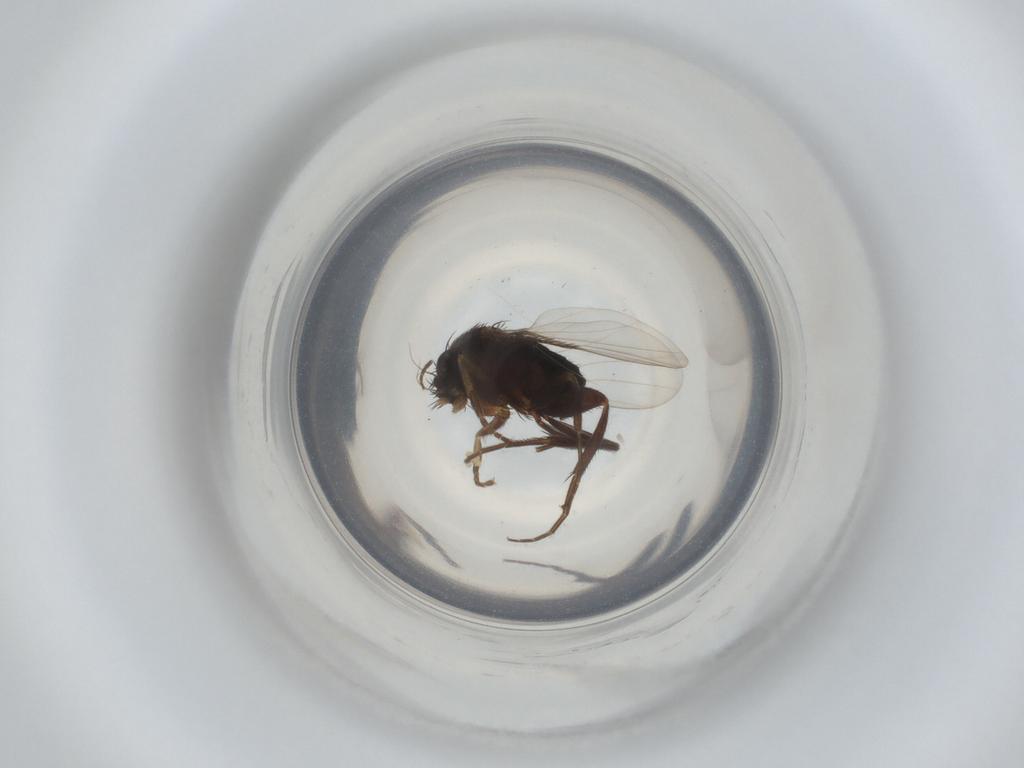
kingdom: Animalia
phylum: Arthropoda
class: Insecta
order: Diptera
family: Phoridae
